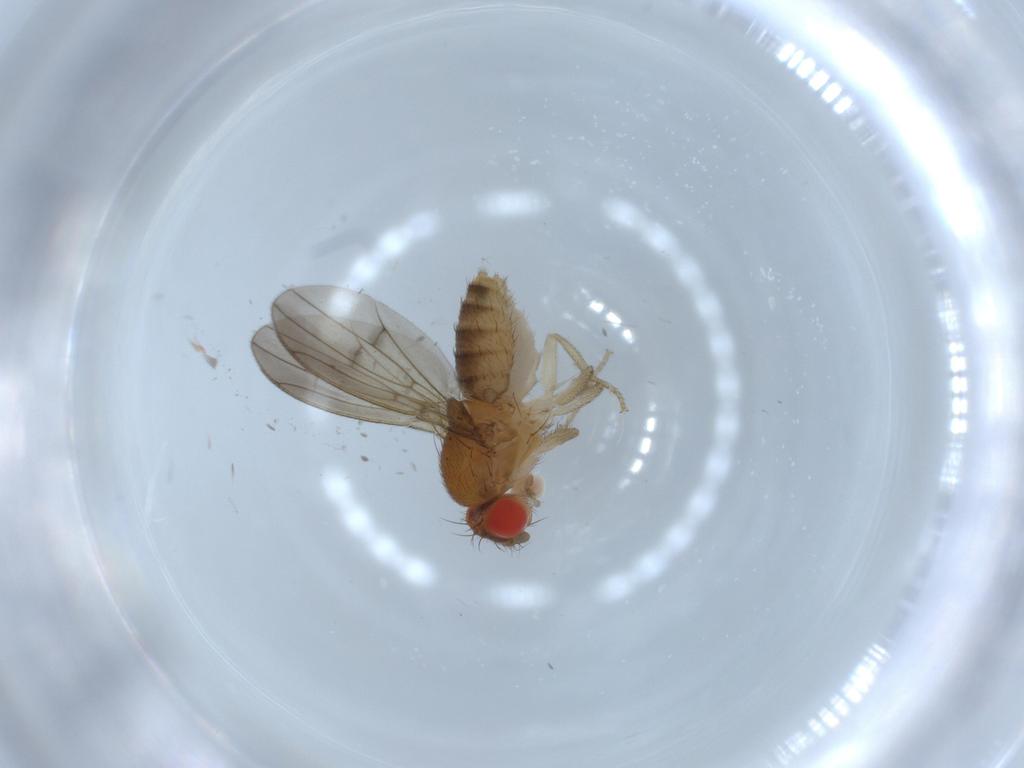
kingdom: Animalia
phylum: Arthropoda
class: Insecta
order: Diptera
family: Drosophilidae
